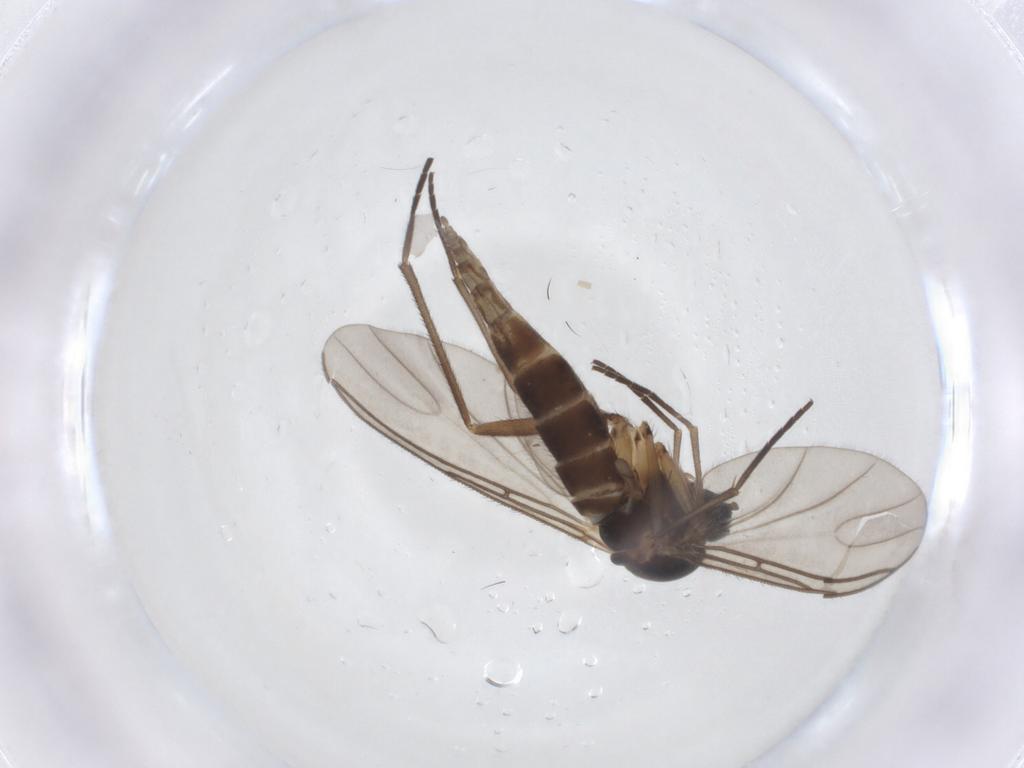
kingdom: Animalia
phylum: Arthropoda
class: Insecta
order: Diptera
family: Sciaridae
